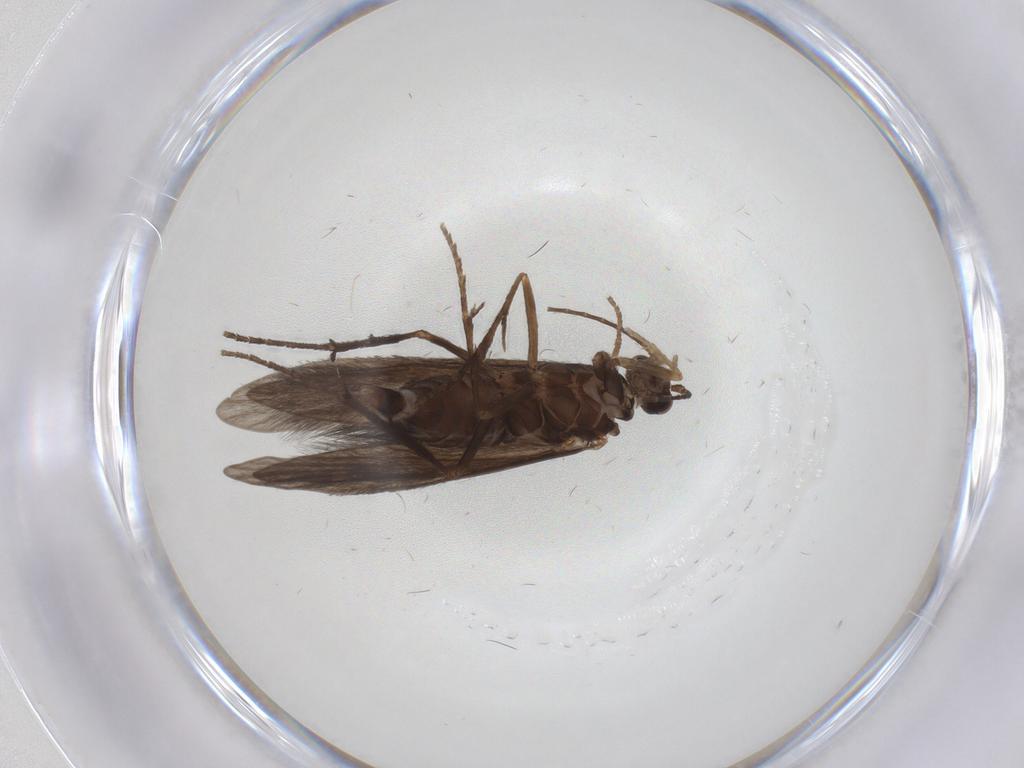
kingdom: Animalia
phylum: Arthropoda
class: Insecta
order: Trichoptera
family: Xiphocentronidae
